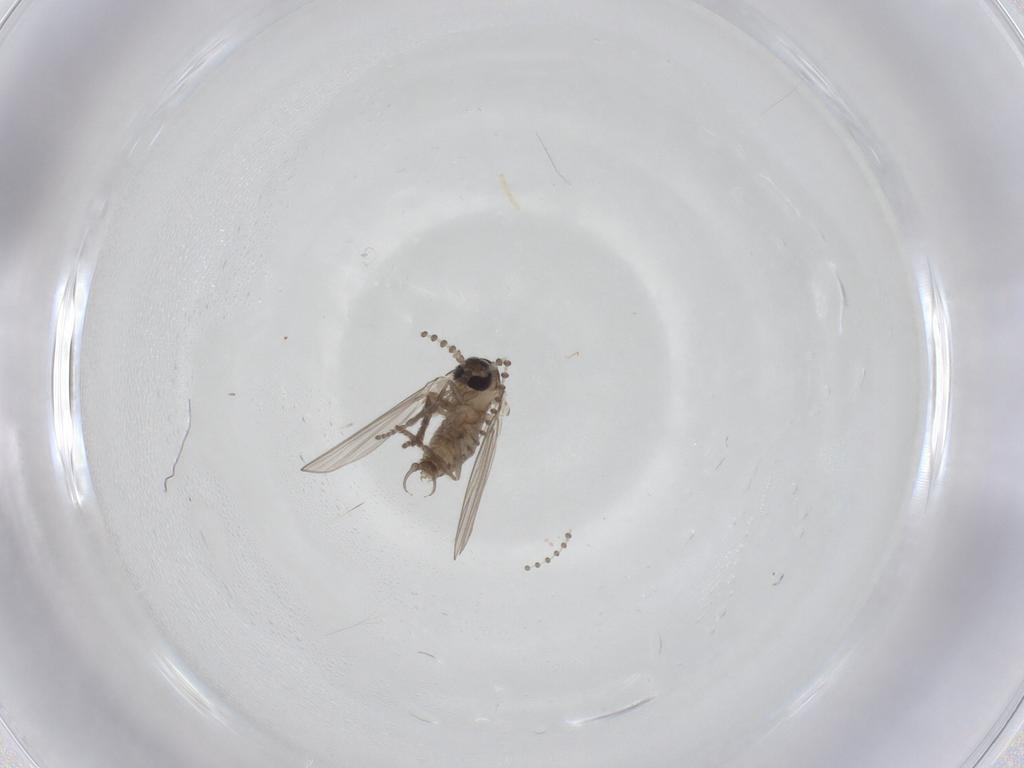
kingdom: Animalia
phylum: Arthropoda
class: Insecta
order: Diptera
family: Psychodidae
